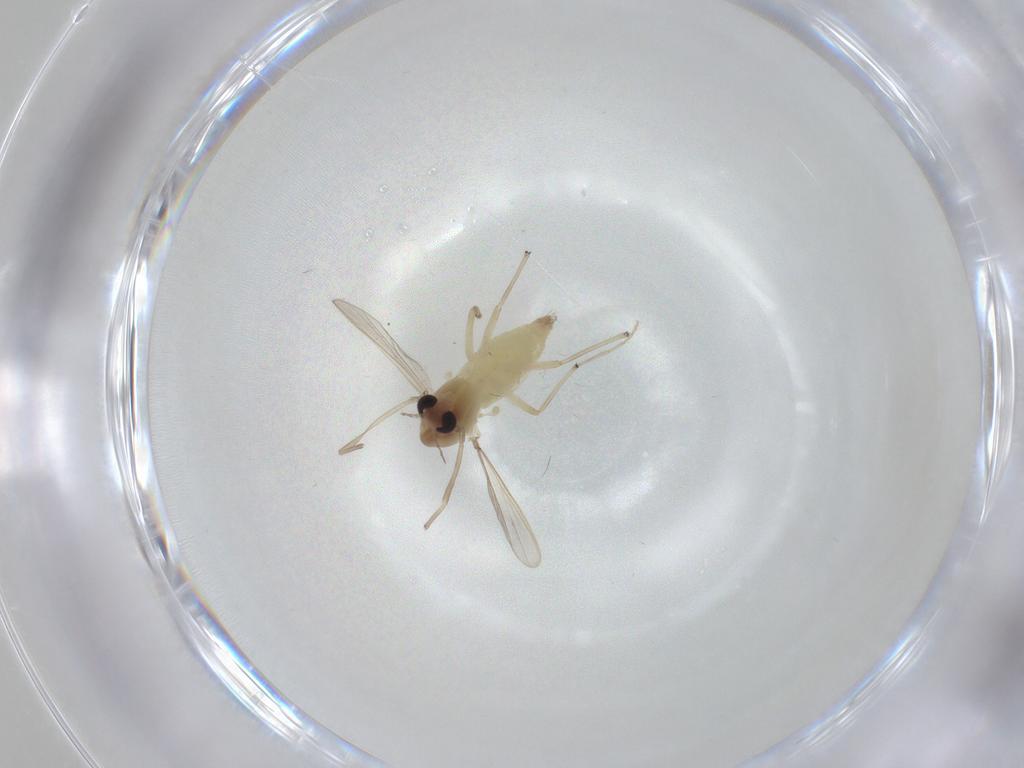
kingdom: Animalia
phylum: Arthropoda
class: Insecta
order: Diptera
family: Chironomidae
